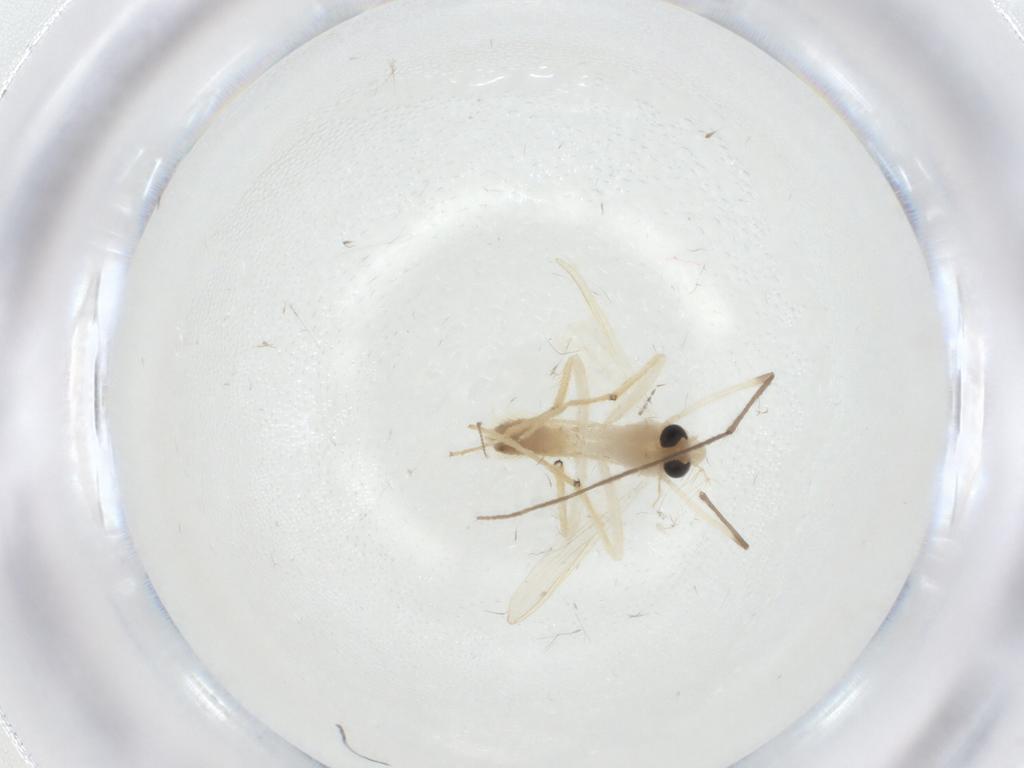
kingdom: Animalia
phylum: Arthropoda
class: Insecta
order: Diptera
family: Chironomidae
